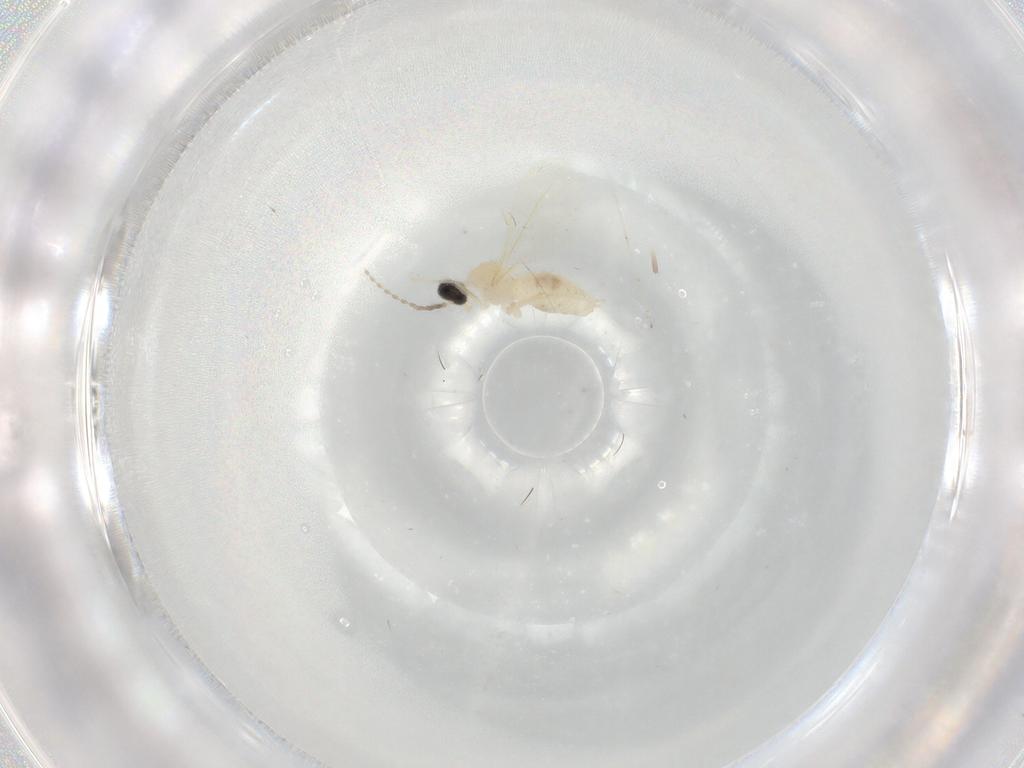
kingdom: Animalia
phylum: Arthropoda
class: Insecta
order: Diptera
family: Cecidomyiidae
